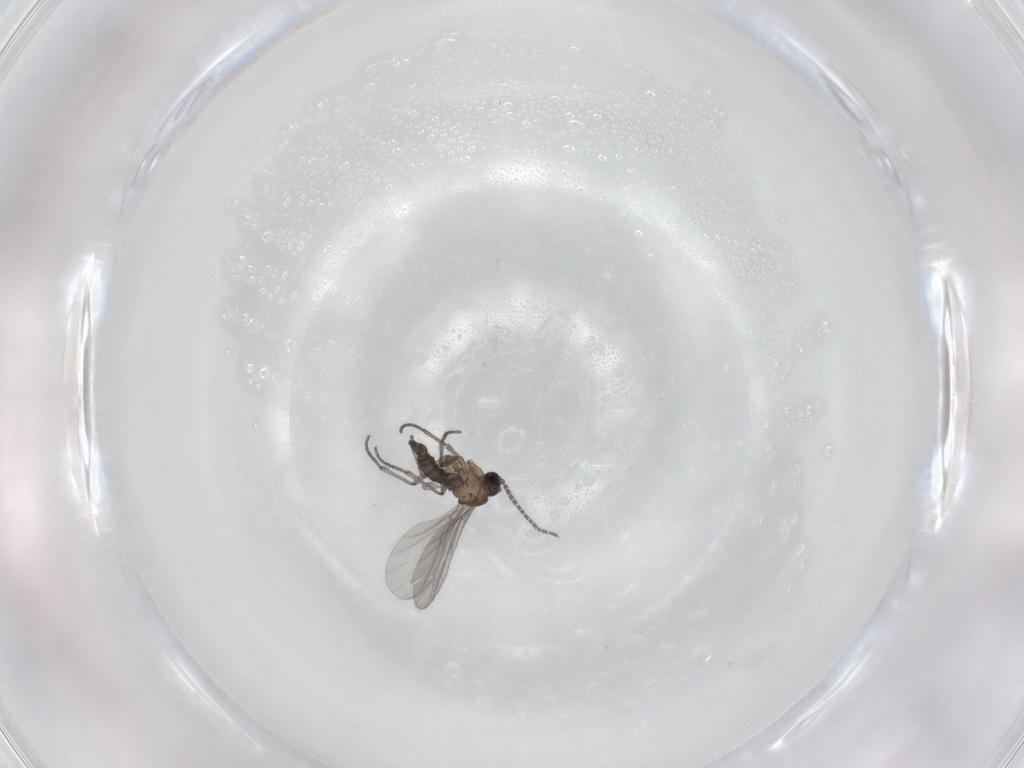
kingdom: Animalia
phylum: Arthropoda
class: Insecta
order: Diptera
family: Sciaridae
